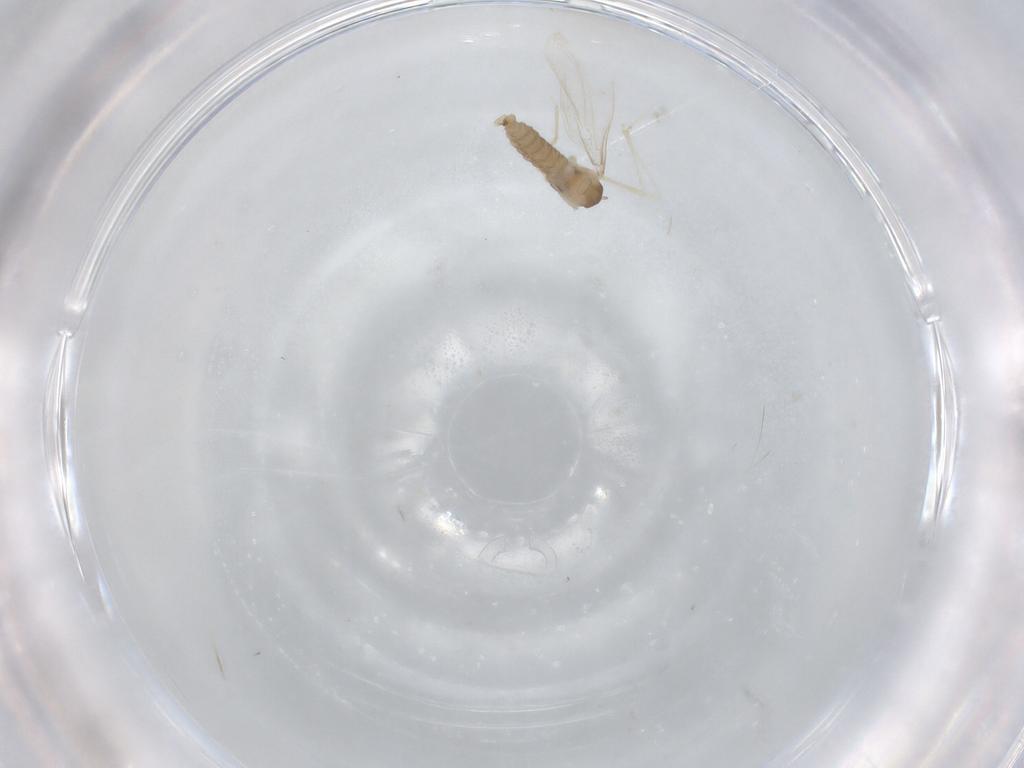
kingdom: Animalia
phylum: Arthropoda
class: Insecta
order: Diptera
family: Cecidomyiidae
